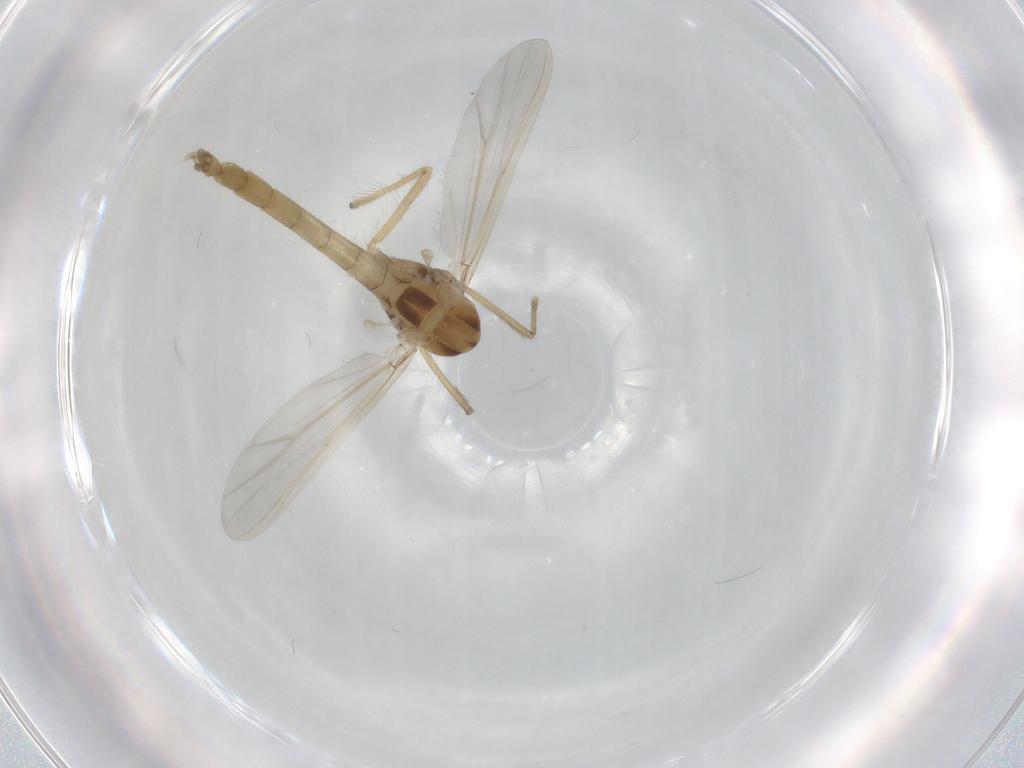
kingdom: Animalia
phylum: Arthropoda
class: Insecta
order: Diptera
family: Chironomidae
